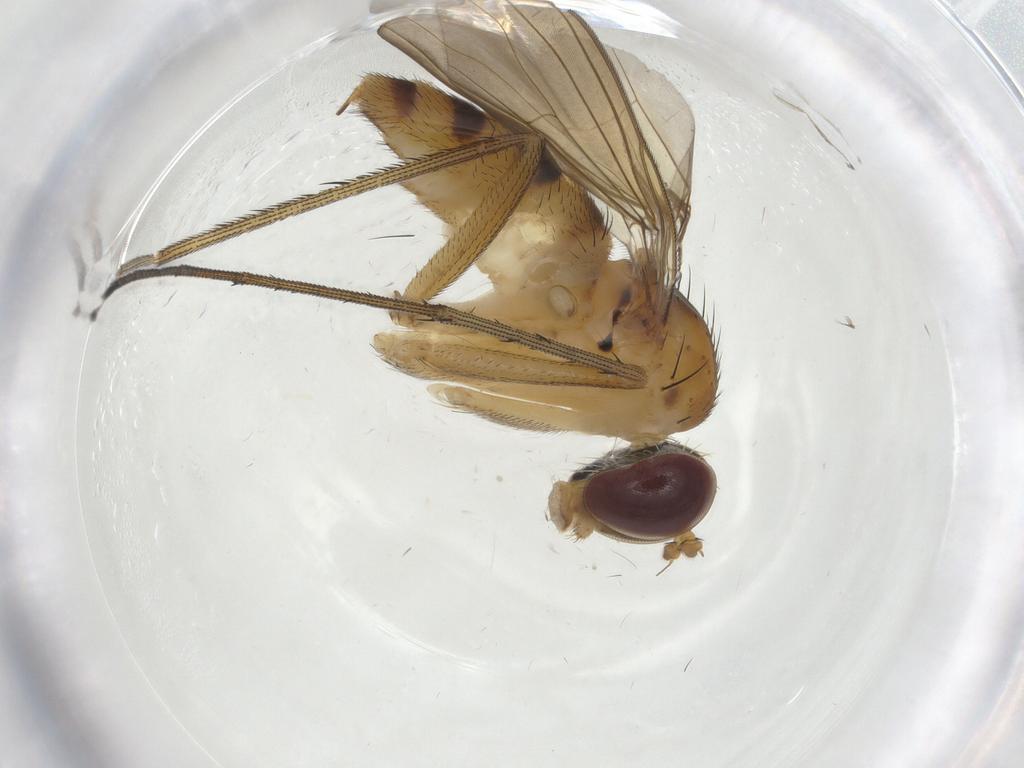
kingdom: Animalia
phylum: Arthropoda
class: Insecta
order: Diptera
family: Dolichopodidae
